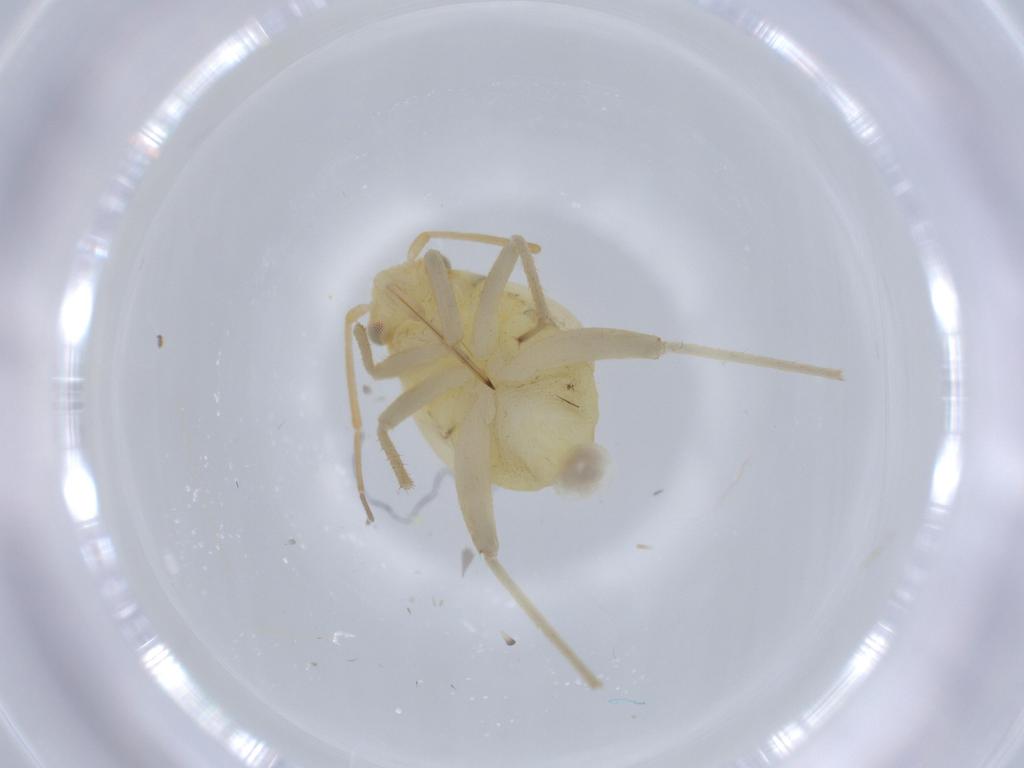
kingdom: Animalia
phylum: Arthropoda
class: Insecta
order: Hemiptera
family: Miridae
